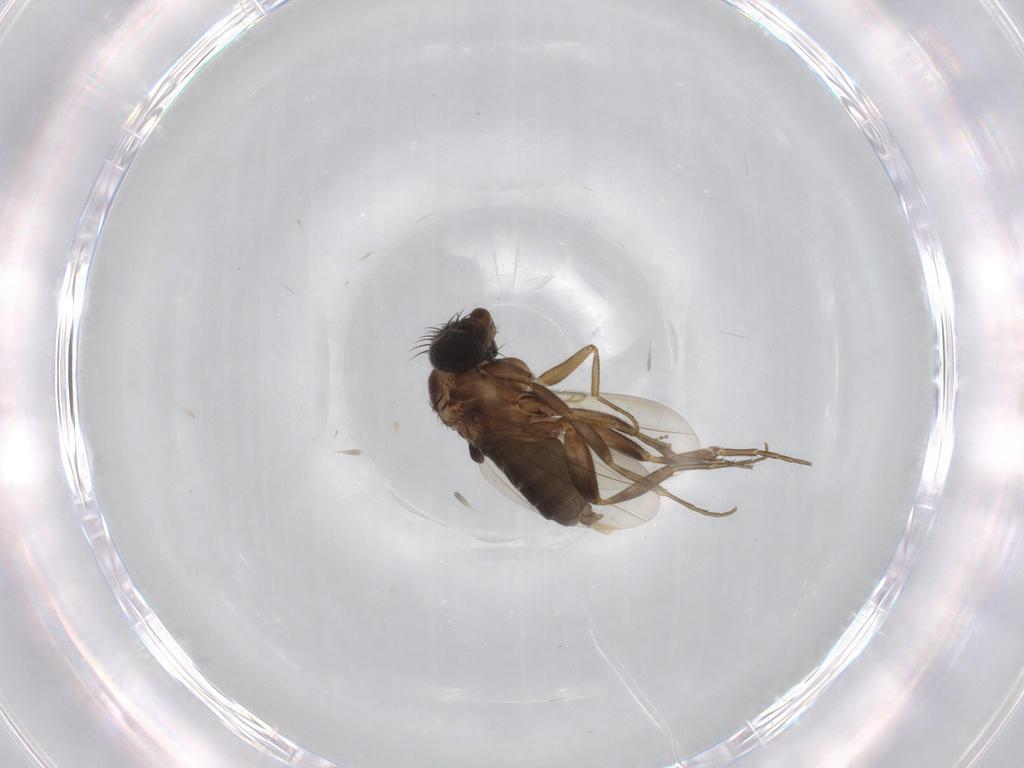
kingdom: Animalia
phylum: Arthropoda
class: Insecta
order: Diptera
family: Phoridae
